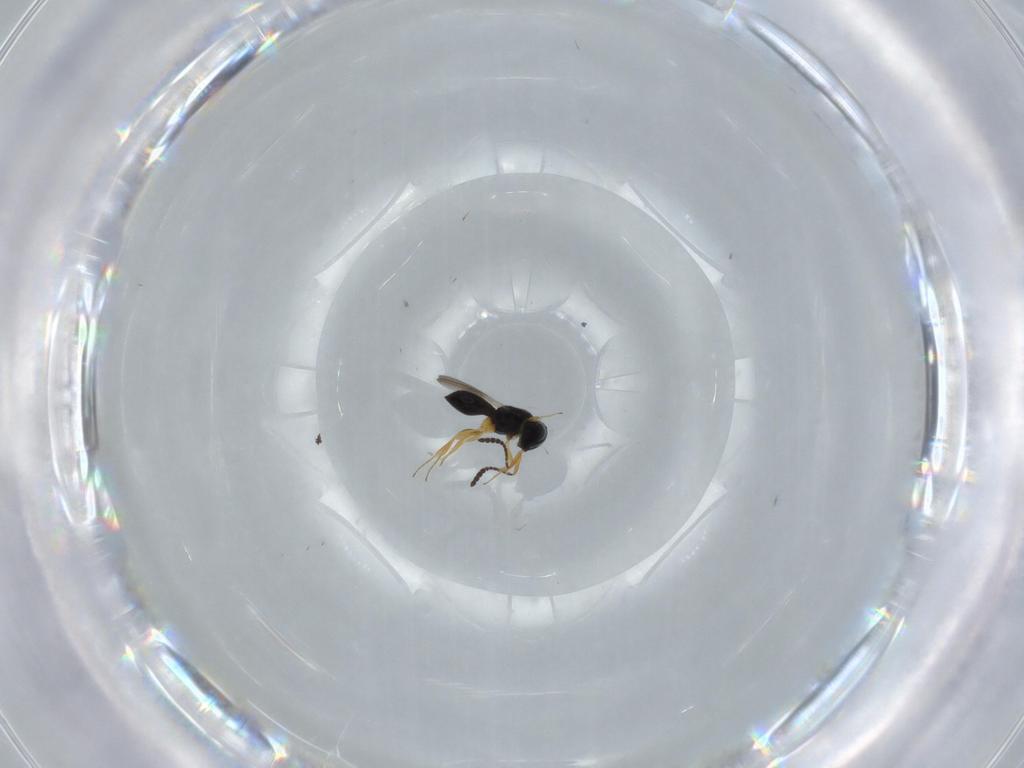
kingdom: Animalia
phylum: Arthropoda
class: Insecta
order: Hymenoptera
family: Scelionidae
